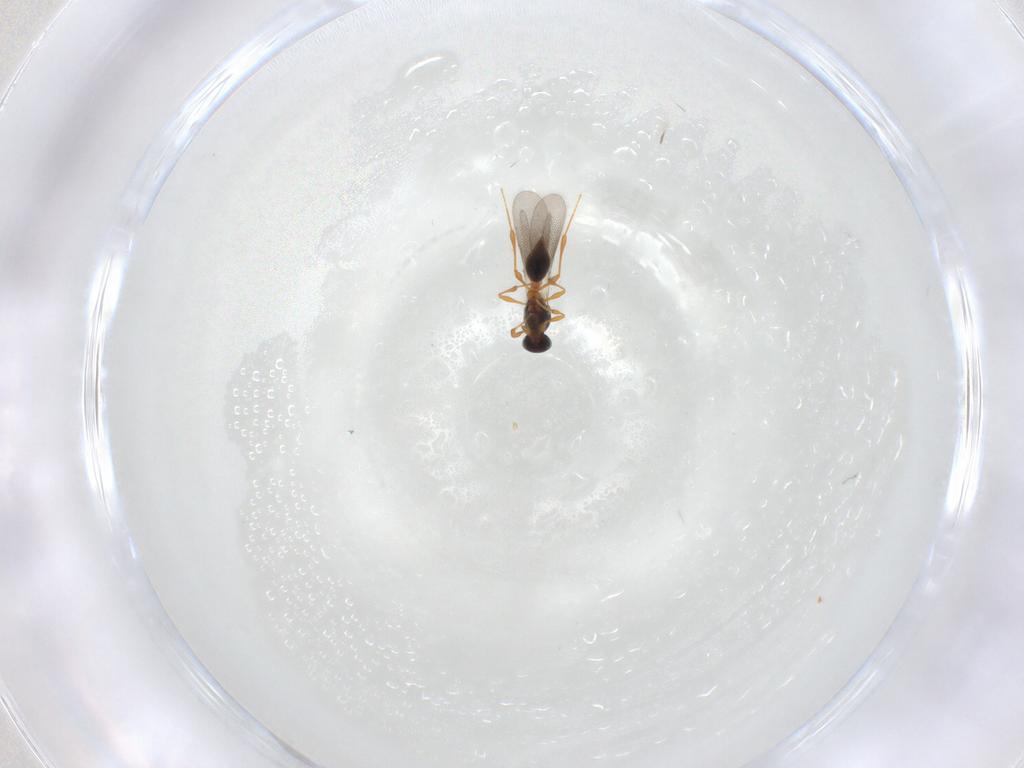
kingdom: Animalia
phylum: Arthropoda
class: Insecta
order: Hymenoptera
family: Platygastridae
